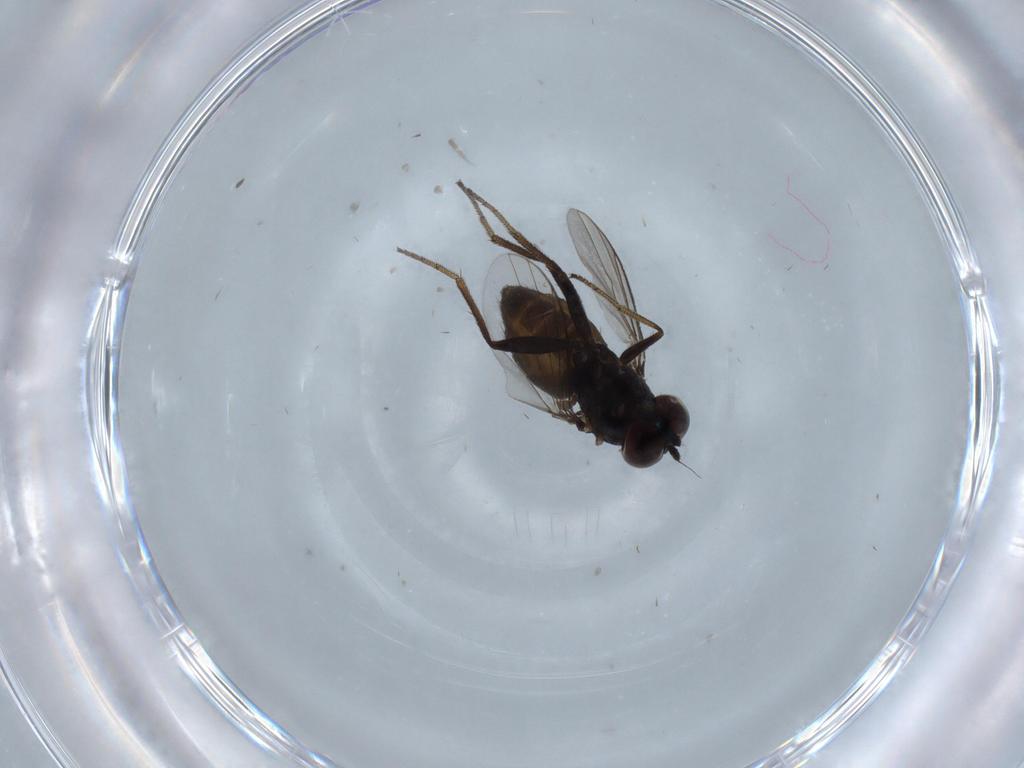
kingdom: Animalia
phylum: Arthropoda
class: Insecta
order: Diptera
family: Dolichopodidae
